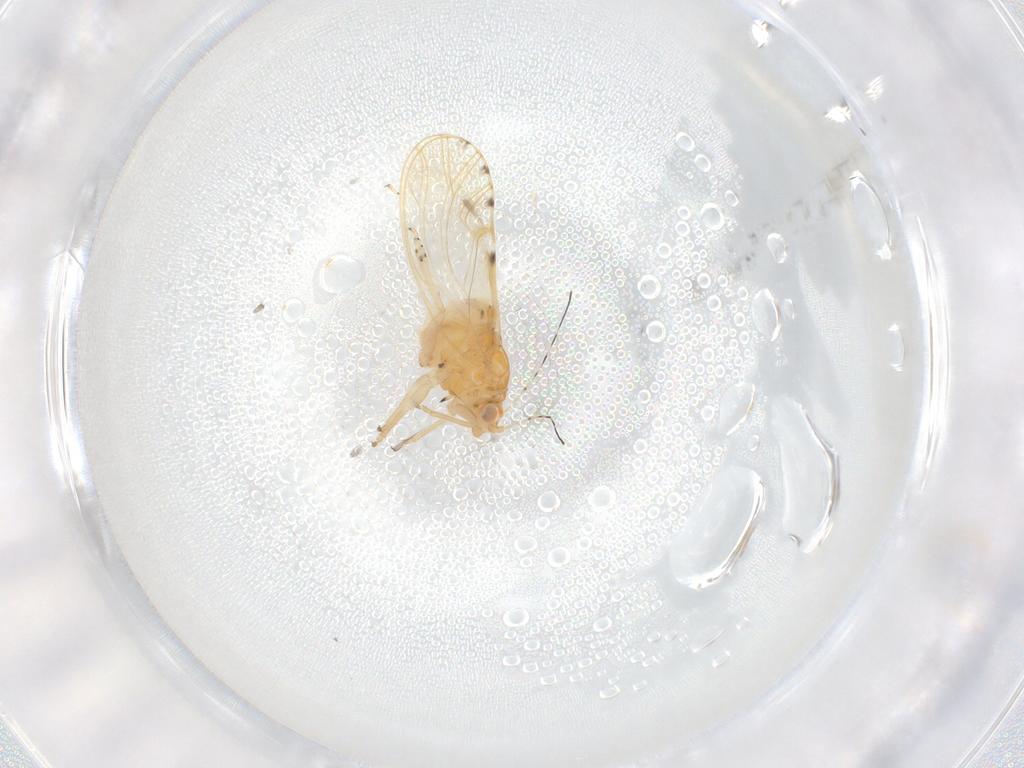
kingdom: Animalia
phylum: Arthropoda
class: Insecta
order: Hemiptera
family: Psylloidea_incertae_sedis
